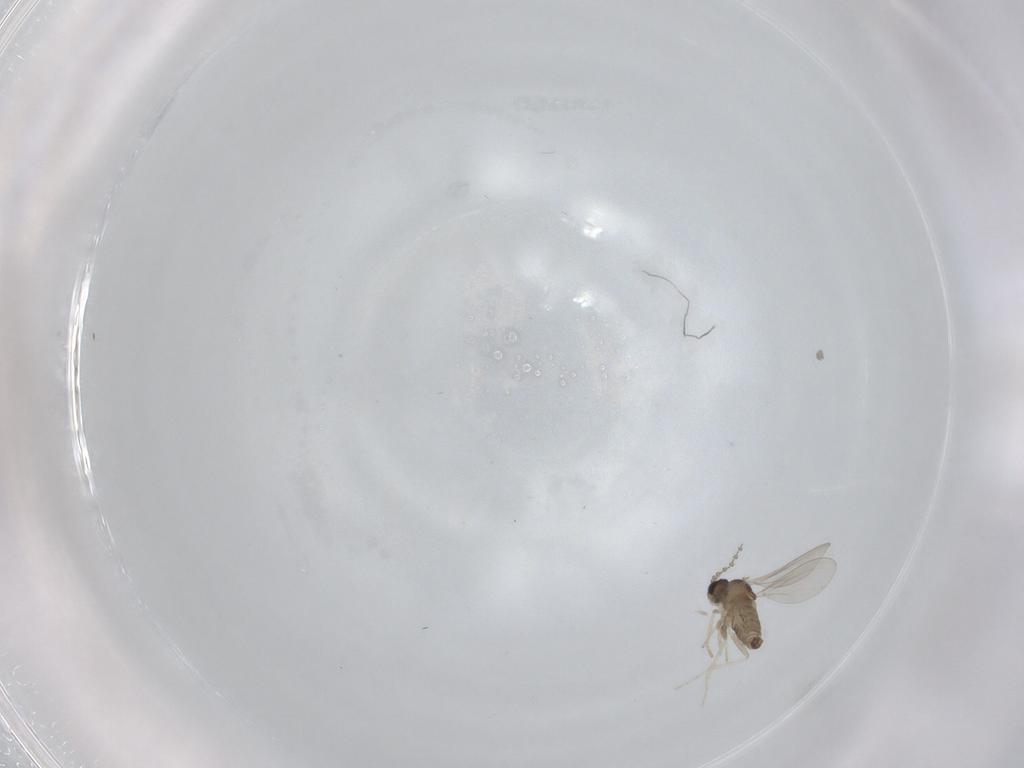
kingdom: Animalia
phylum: Arthropoda
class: Insecta
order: Diptera
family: Cecidomyiidae
